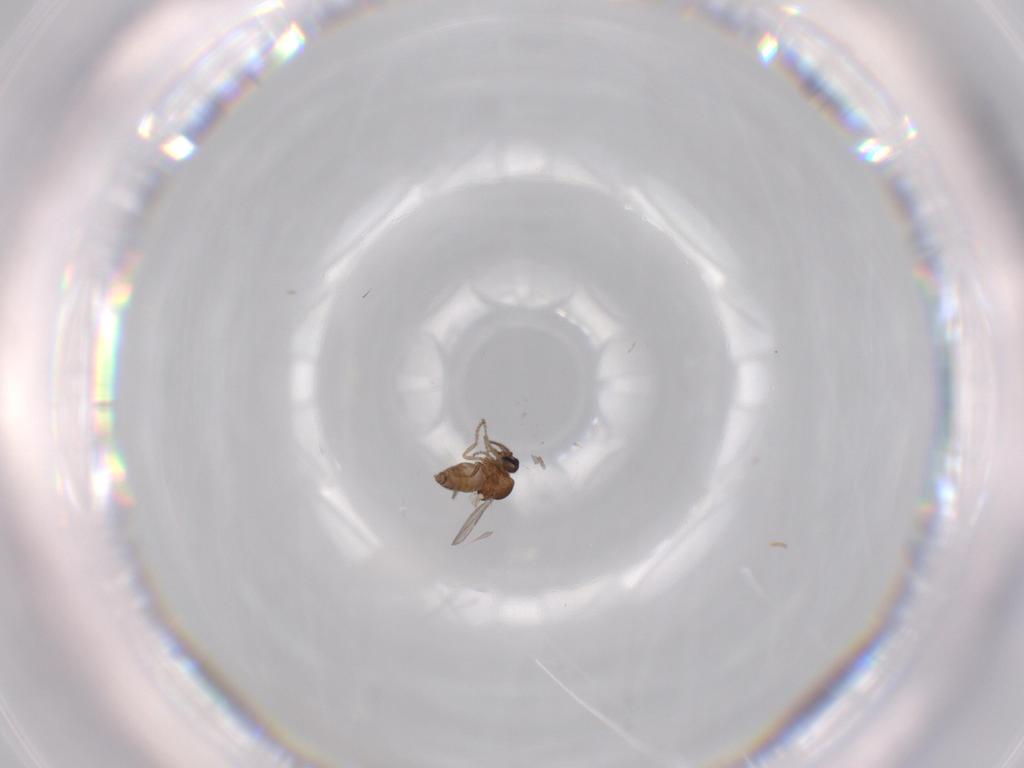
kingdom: Animalia
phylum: Arthropoda
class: Insecta
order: Diptera
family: Ceratopogonidae
